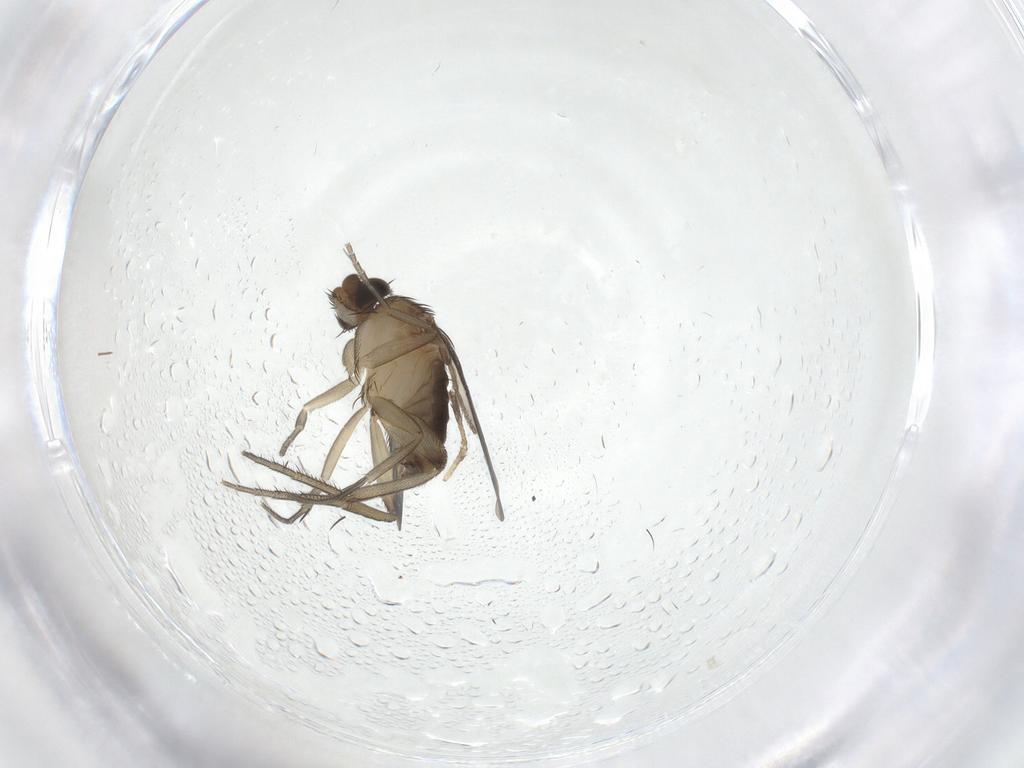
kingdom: Animalia
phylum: Arthropoda
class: Insecta
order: Diptera
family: Phoridae
